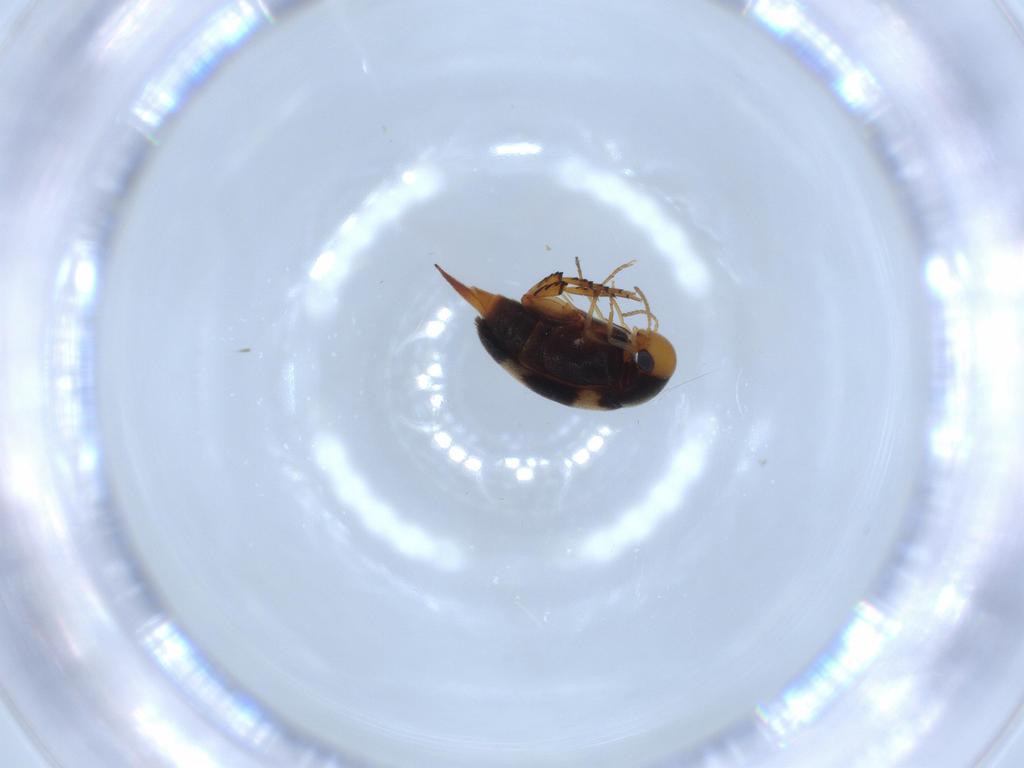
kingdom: Animalia
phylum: Arthropoda
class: Insecta
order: Coleoptera
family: Mordellidae
